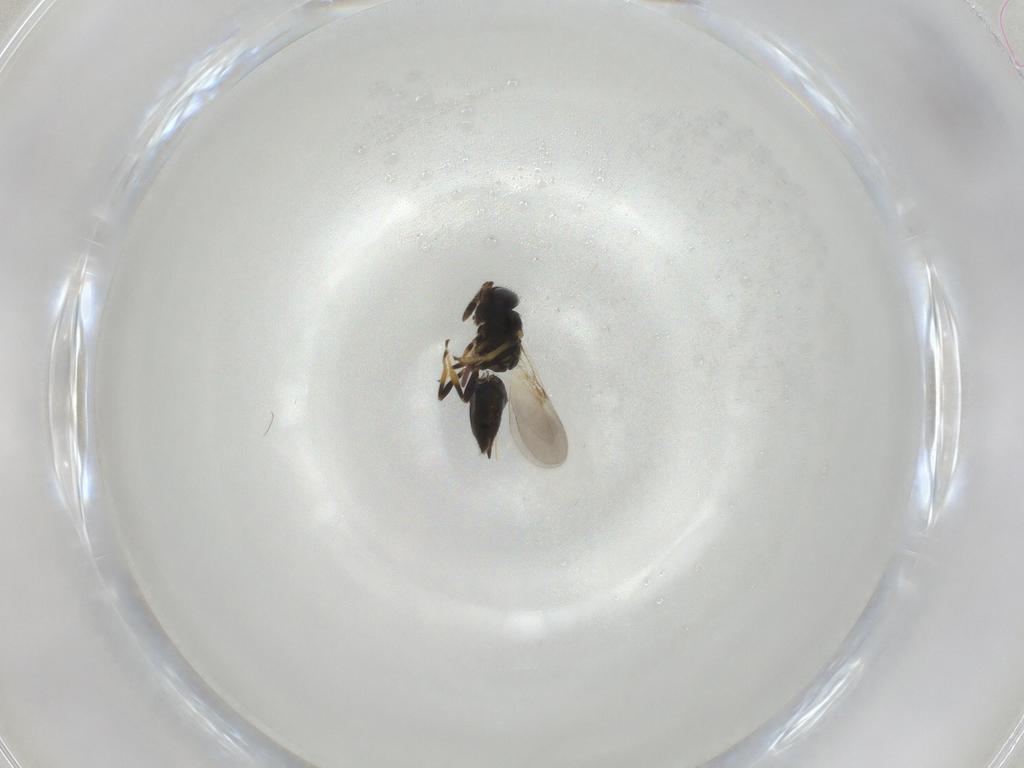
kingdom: Animalia
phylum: Arthropoda
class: Insecta
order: Hymenoptera
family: Encyrtidae
